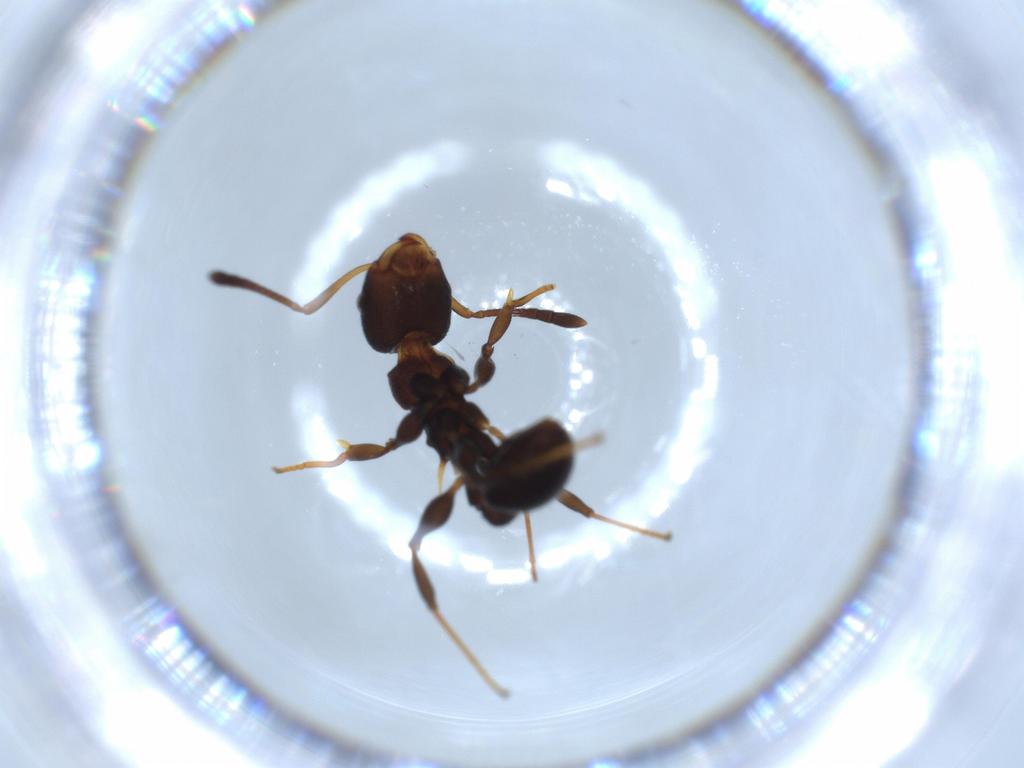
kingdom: Animalia
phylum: Arthropoda
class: Insecta
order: Hymenoptera
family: Formicidae
